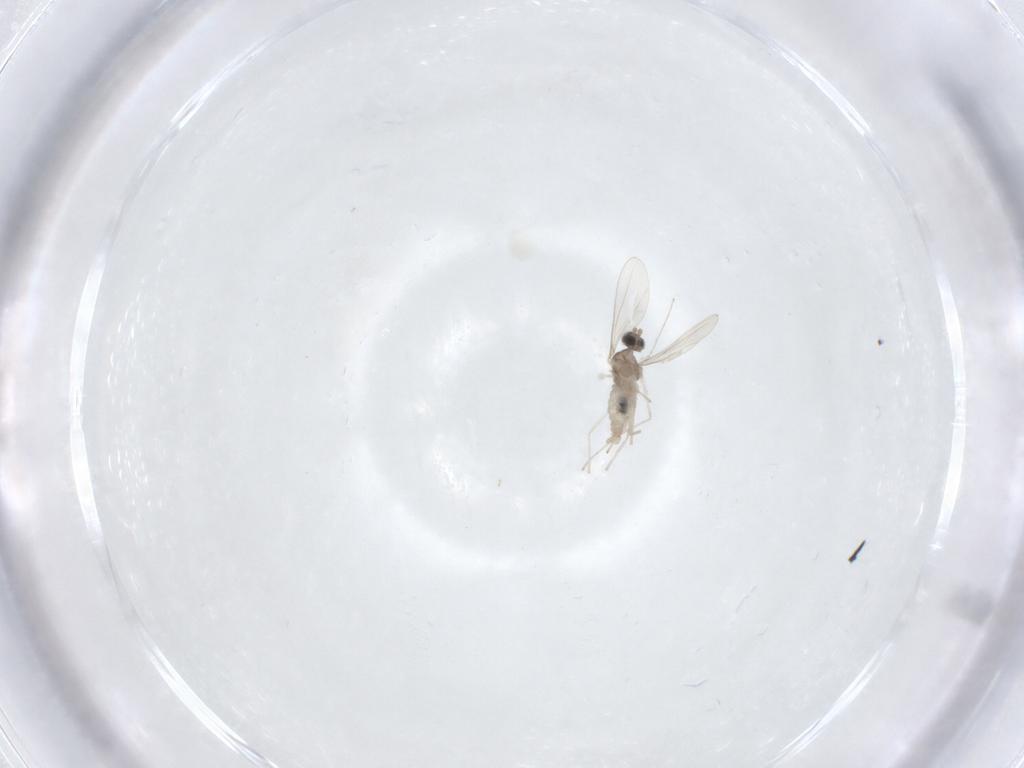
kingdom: Animalia
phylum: Arthropoda
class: Insecta
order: Diptera
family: Cecidomyiidae
